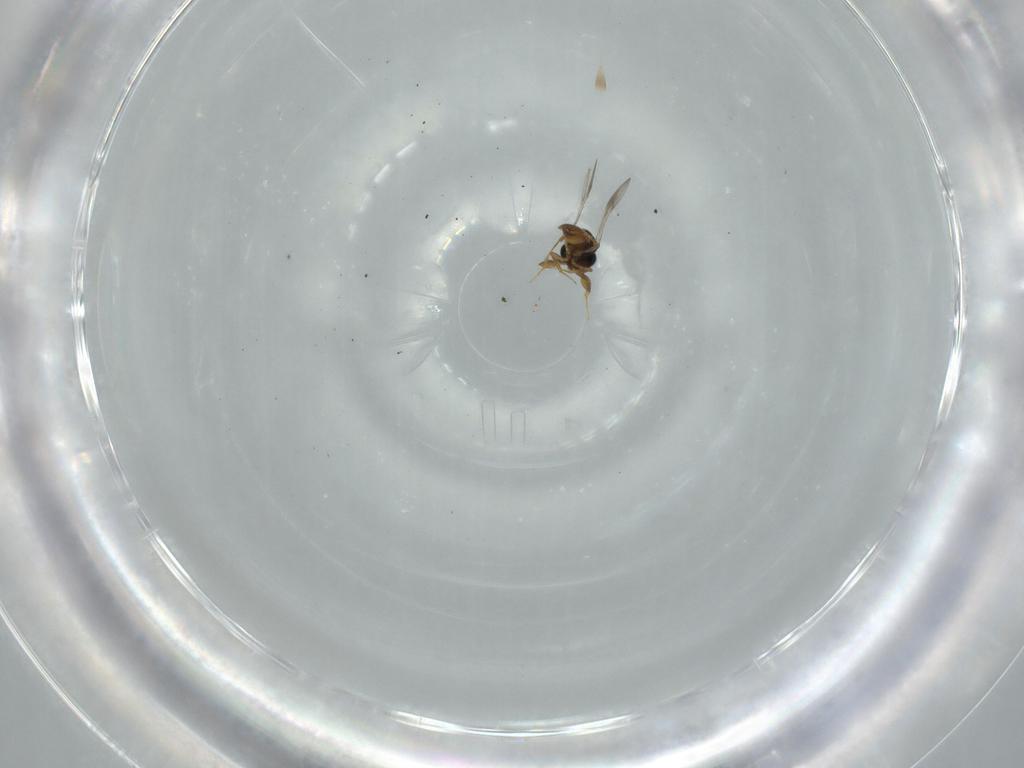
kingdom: Animalia
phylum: Arthropoda
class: Insecta
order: Hymenoptera
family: Scelionidae
